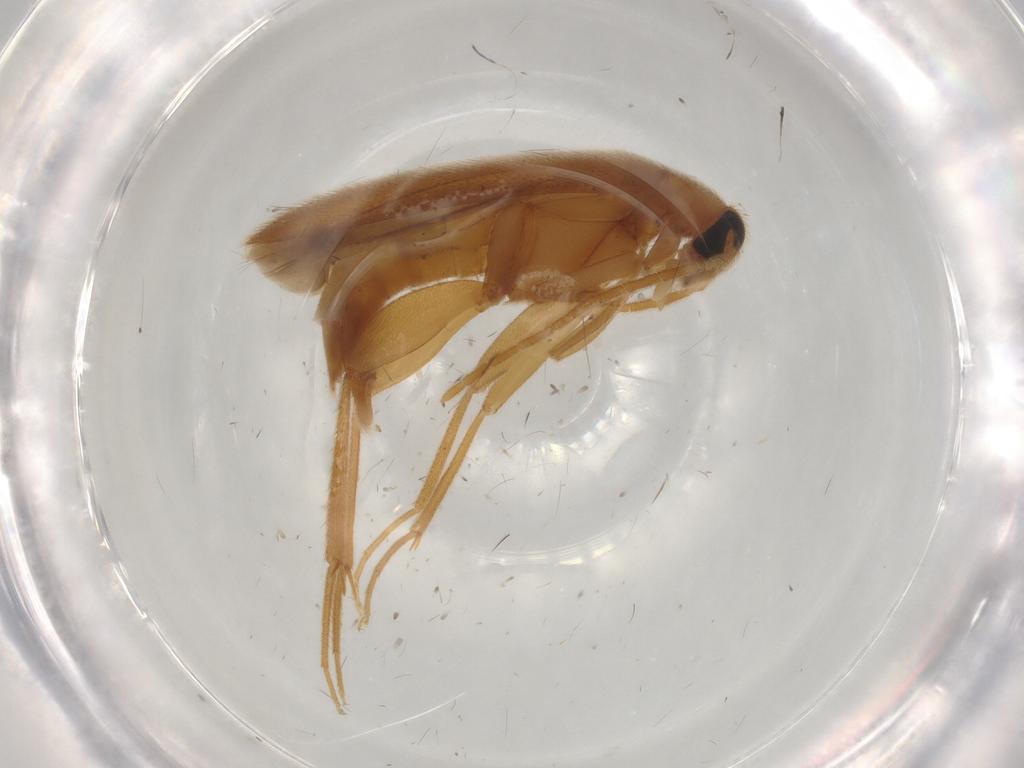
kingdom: Animalia
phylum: Arthropoda
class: Insecta
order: Coleoptera
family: Scraptiidae
